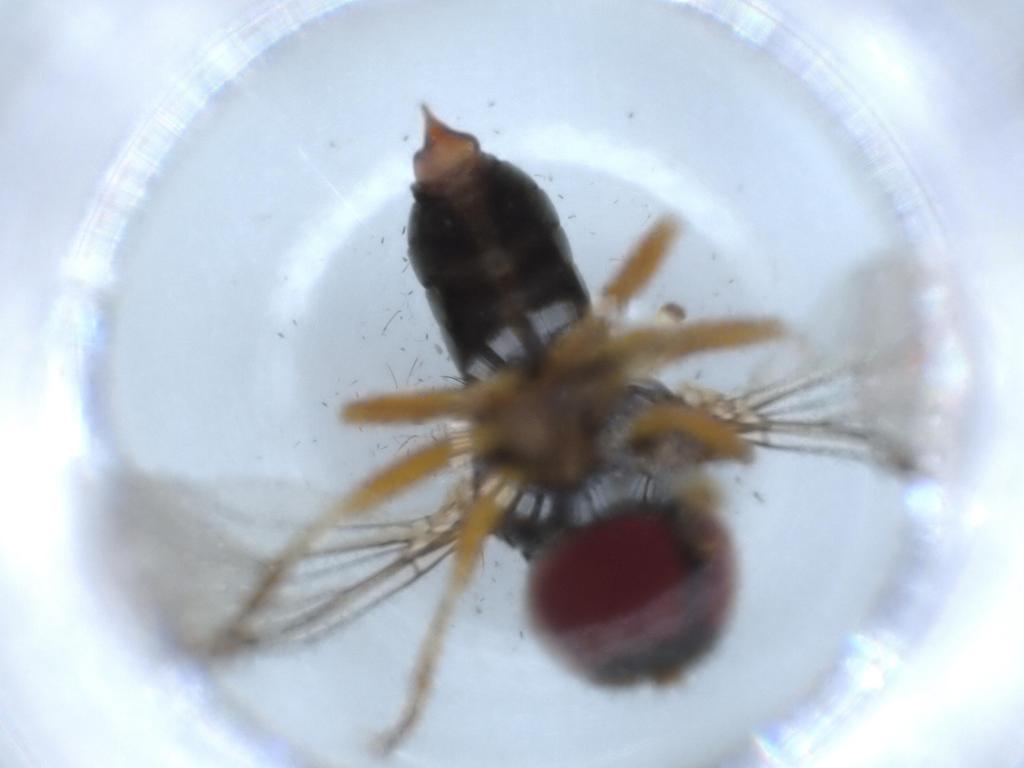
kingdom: Animalia
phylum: Arthropoda
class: Insecta
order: Diptera
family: Pipunculidae
